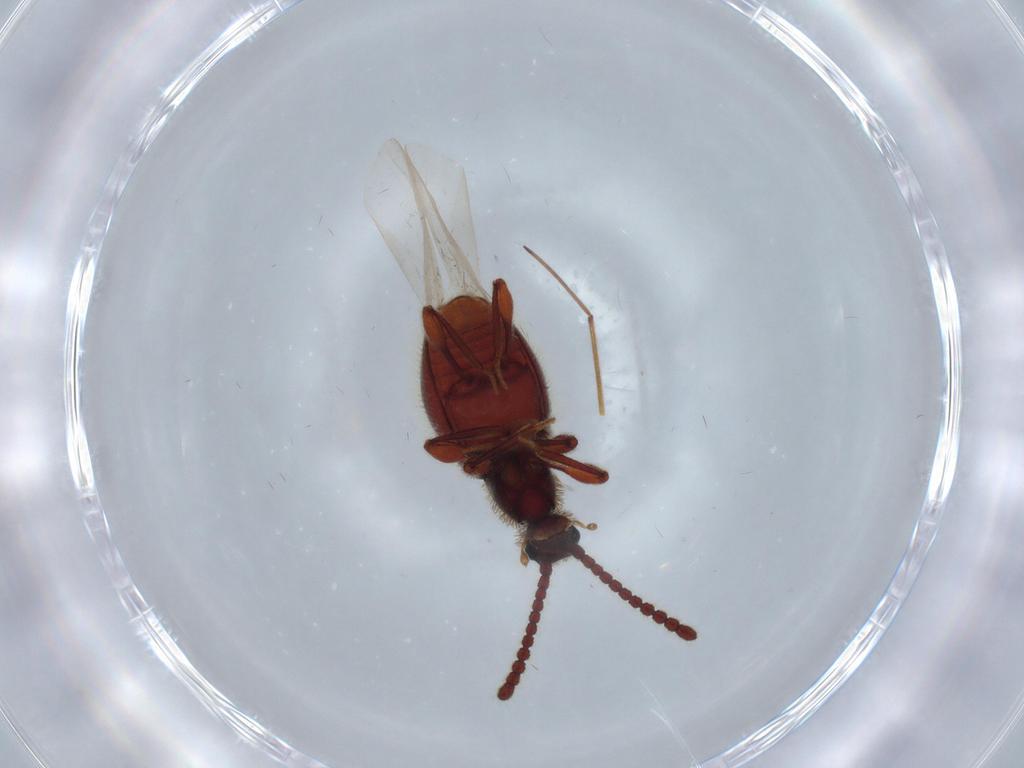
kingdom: Animalia
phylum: Arthropoda
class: Insecta
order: Coleoptera
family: Staphylinidae
